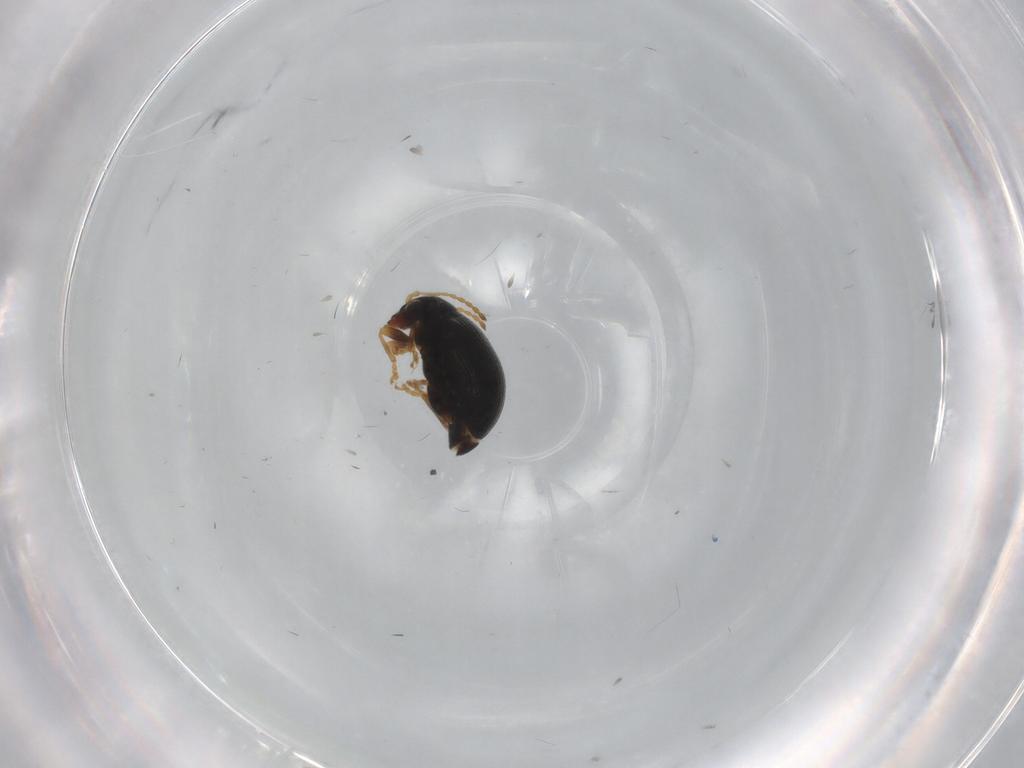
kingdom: Animalia
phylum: Arthropoda
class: Insecta
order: Coleoptera
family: Chrysomelidae
